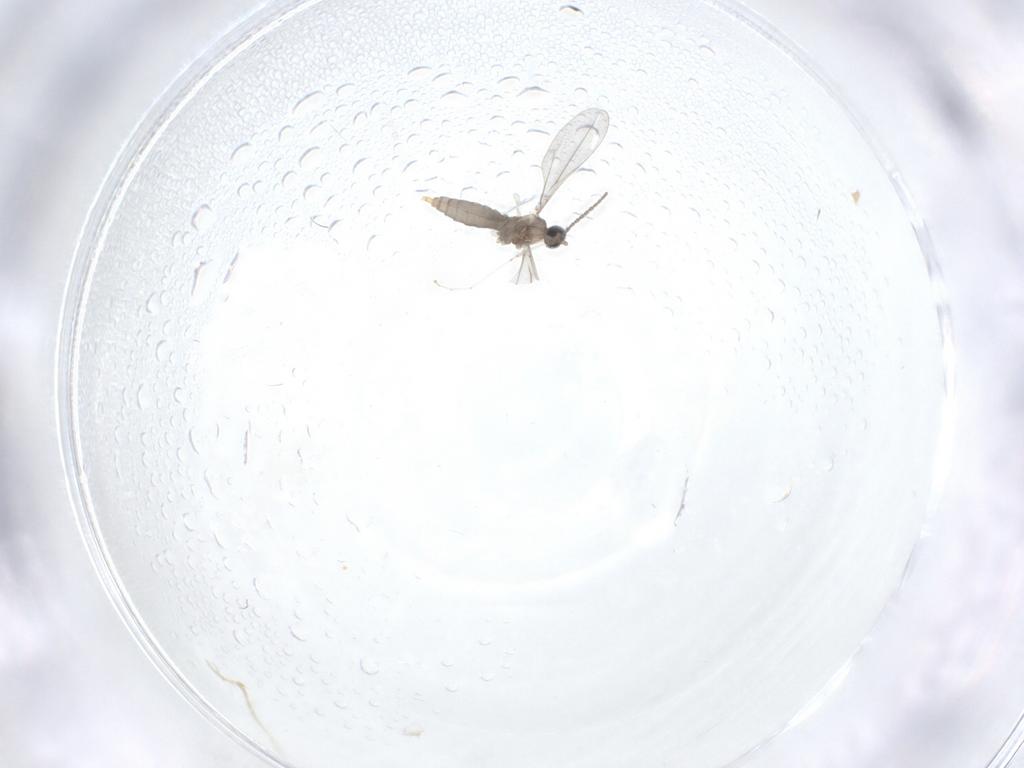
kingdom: Animalia
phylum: Arthropoda
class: Insecta
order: Diptera
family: Cecidomyiidae
